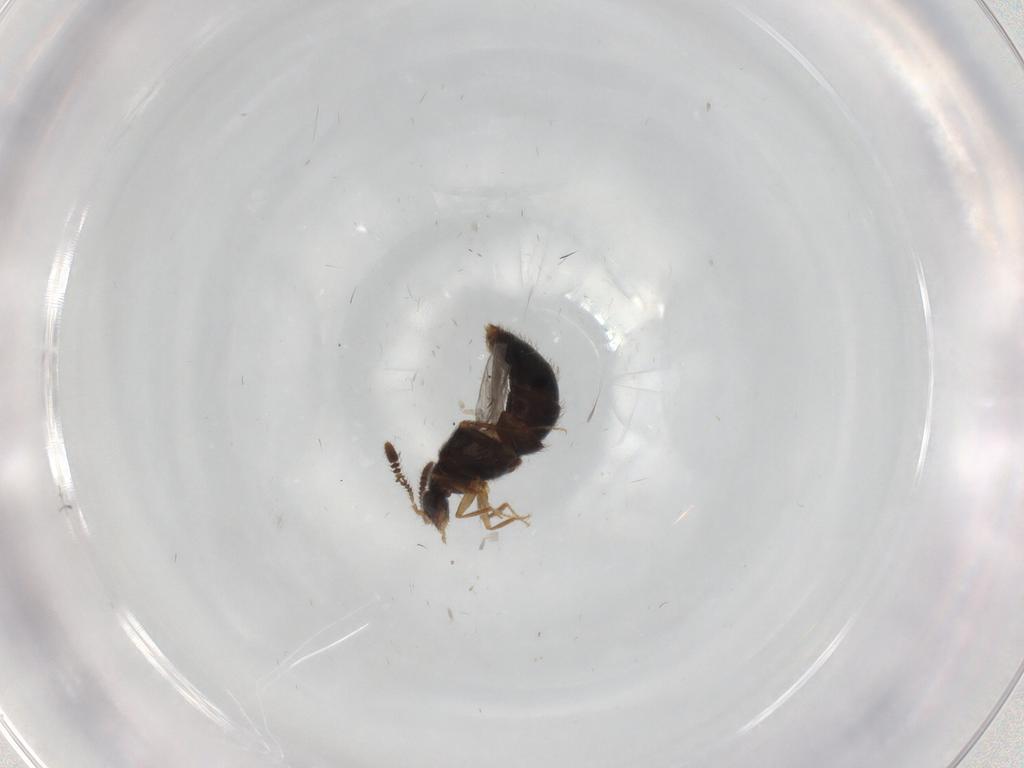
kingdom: Animalia
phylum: Arthropoda
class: Insecta
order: Coleoptera
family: Staphylinidae
